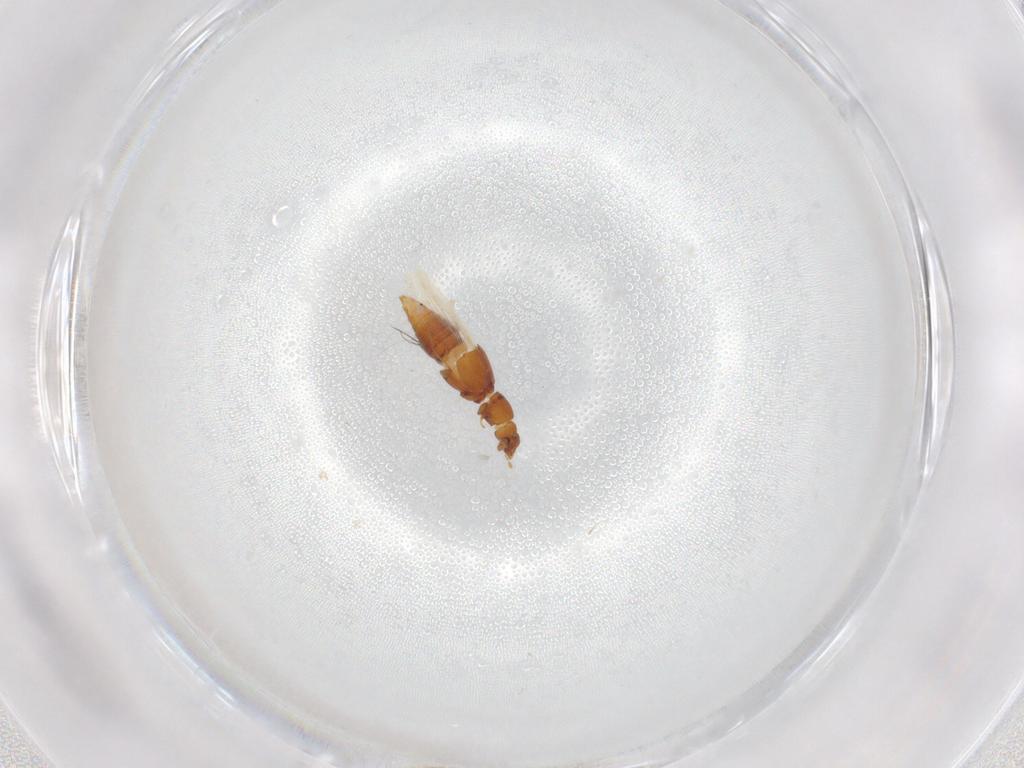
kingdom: Animalia
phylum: Arthropoda
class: Insecta
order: Coleoptera
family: Staphylinidae
